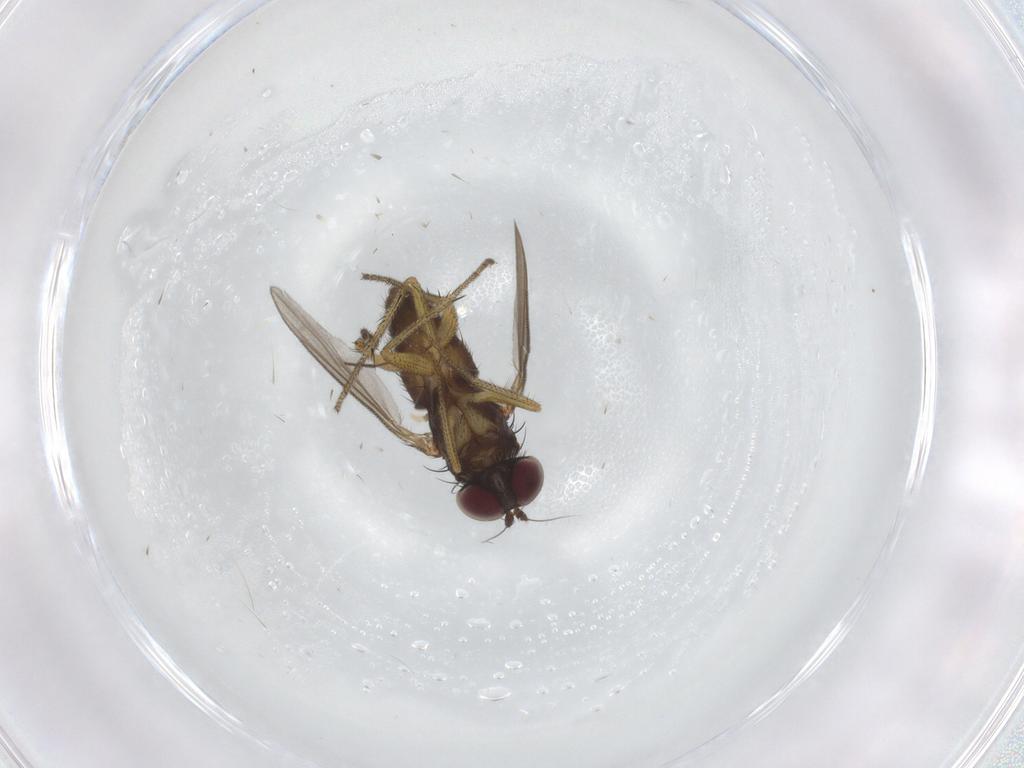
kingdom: Animalia
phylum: Arthropoda
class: Insecta
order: Diptera
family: Dolichopodidae
